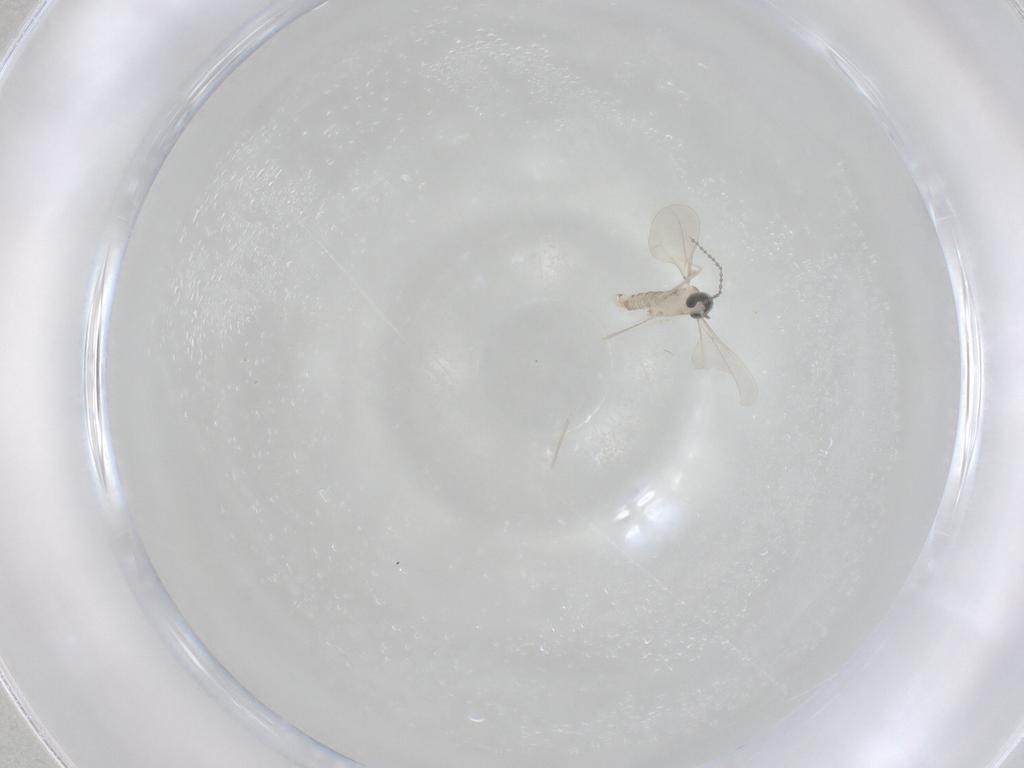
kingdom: Animalia
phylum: Arthropoda
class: Insecta
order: Diptera
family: Cecidomyiidae
